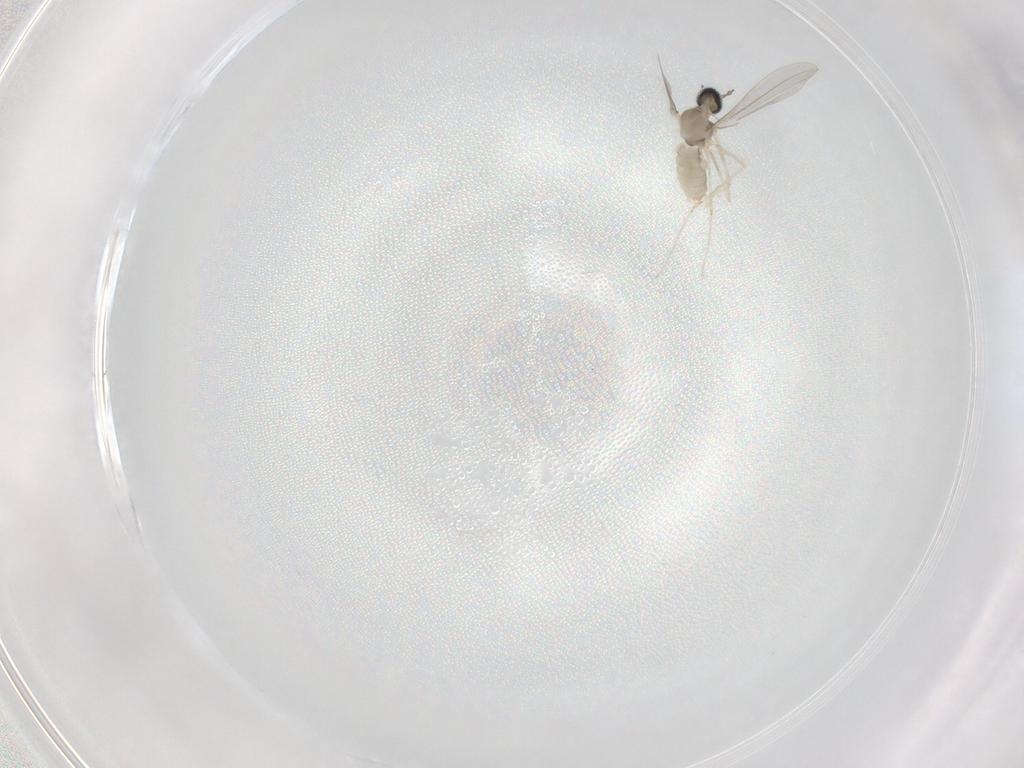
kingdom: Animalia
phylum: Arthropoda
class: Insecta
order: Diptera
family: Cecidomyiidae
